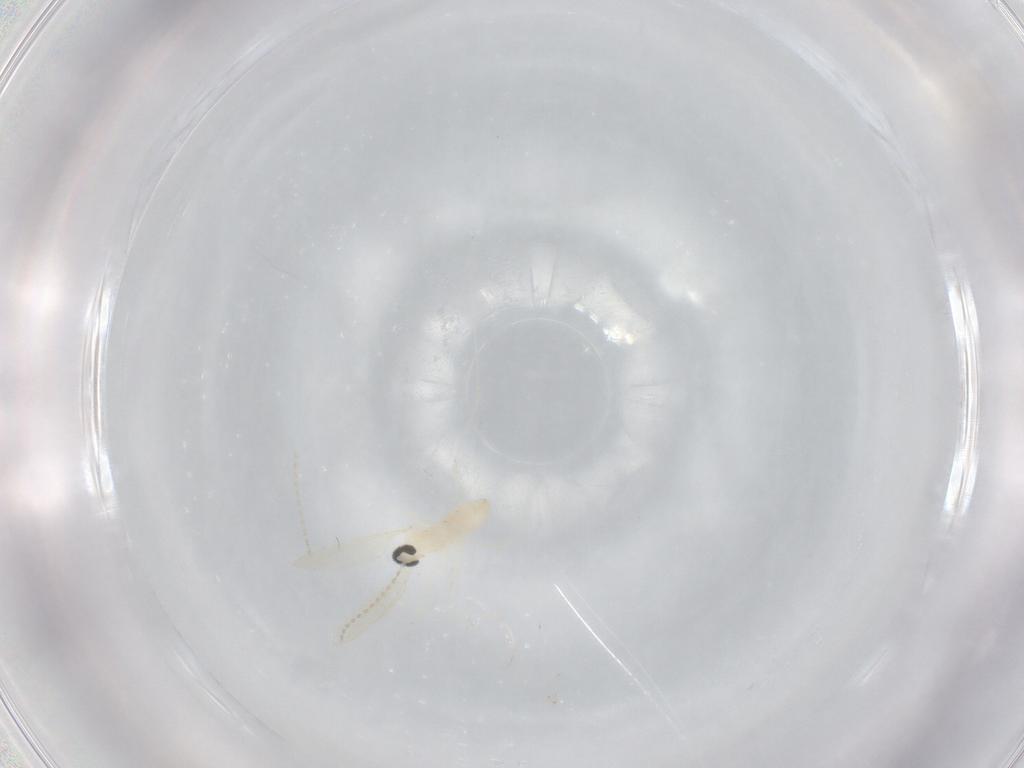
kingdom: Animalia
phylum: Arthropoda
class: Insecta
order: Diptera
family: Cecidomyiidae
